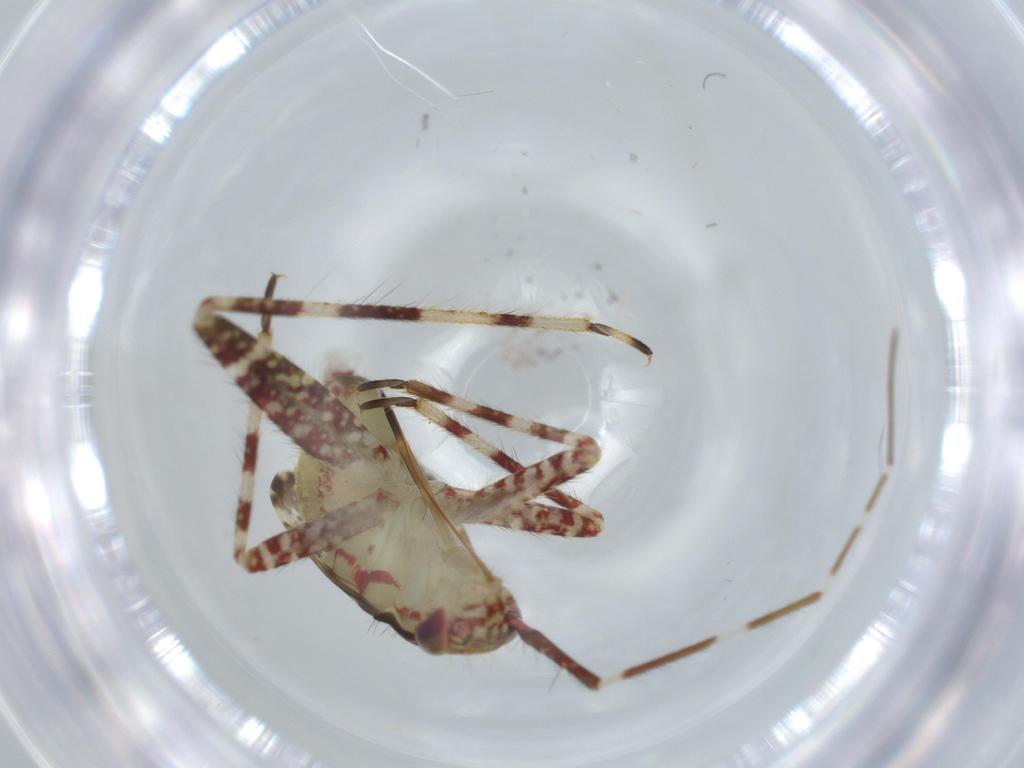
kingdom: Animalia
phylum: Arthropoda
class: Insecta
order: Hemiptera
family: Miridae
